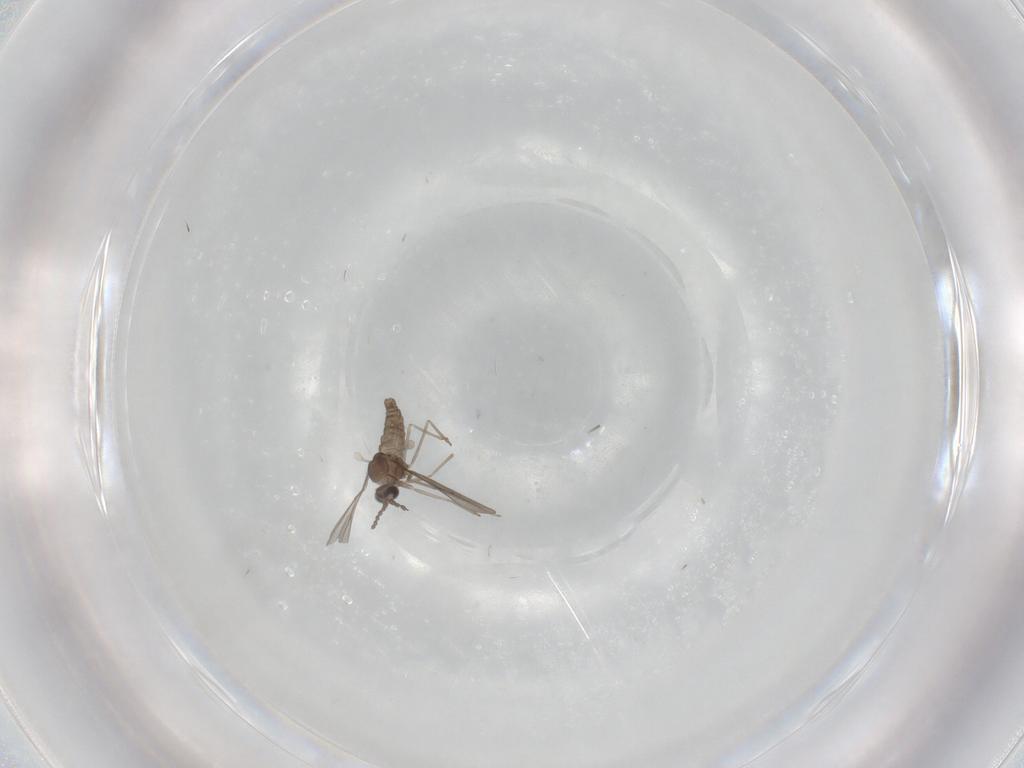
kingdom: Animalia
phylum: Arthropoda
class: Insecta
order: Diptera
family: Cecidomyiidae
